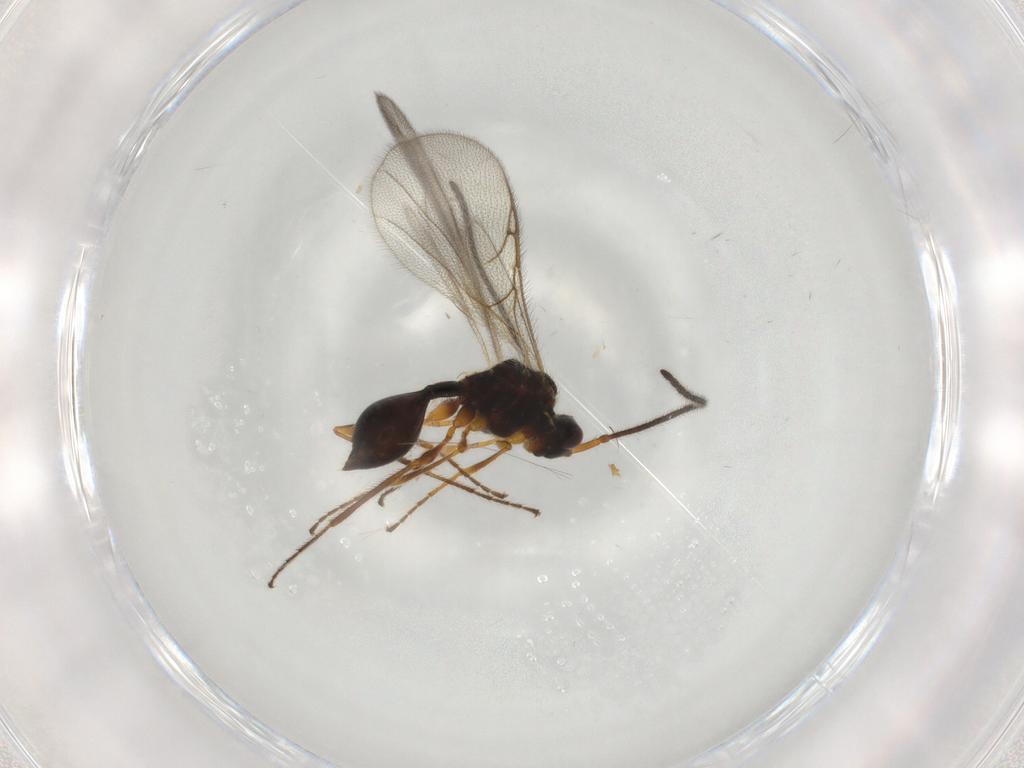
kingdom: Animalia
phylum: Arthropoda
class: Insecta
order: Hymenoptera
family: Diapriidae
